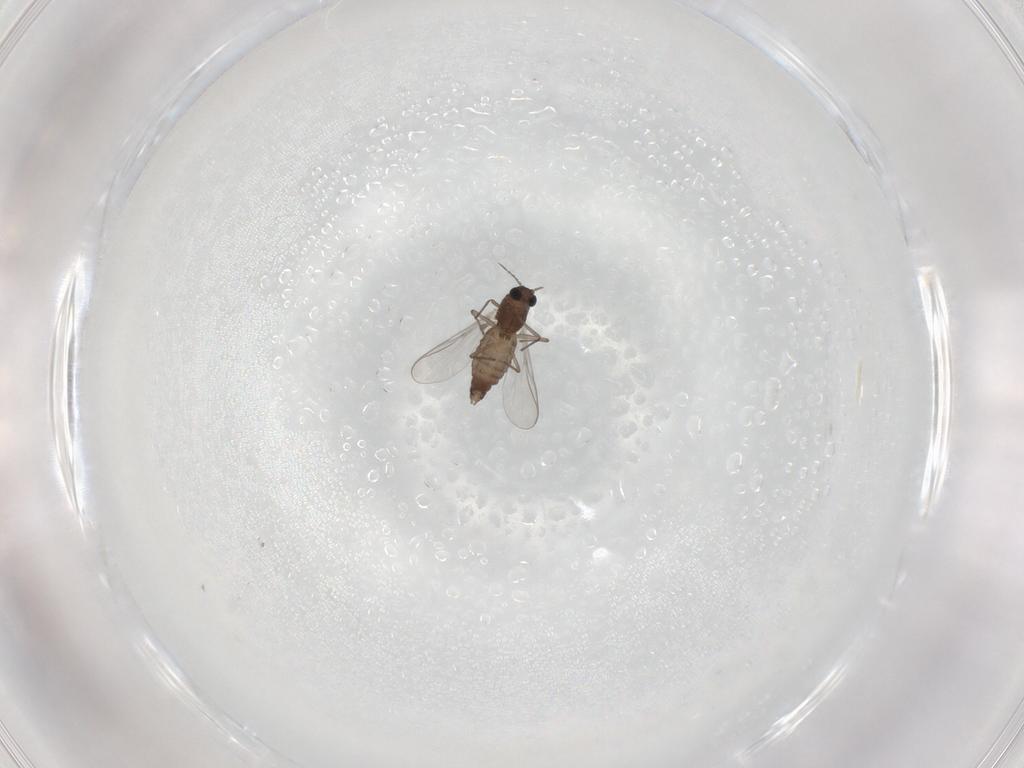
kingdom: Animalia
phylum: Arthropoda
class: Insecta
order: Diptera
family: Chironomidae
